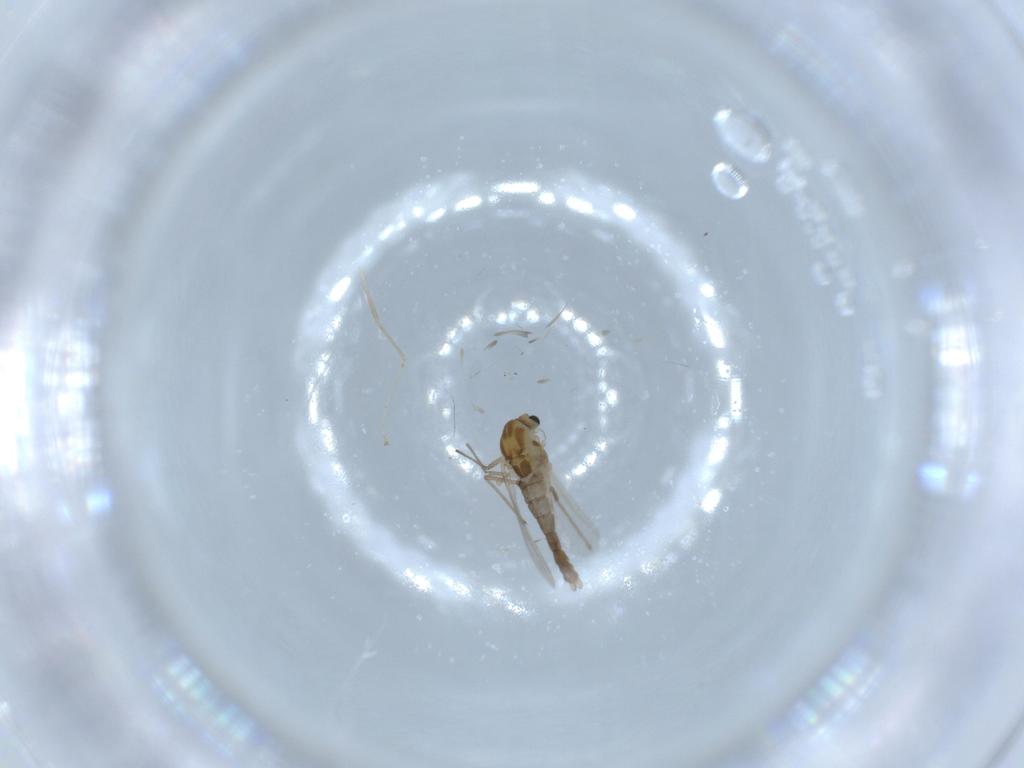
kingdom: Animalia
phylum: Arthropoda
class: Insecta
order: Diptera
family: Chironomidae
